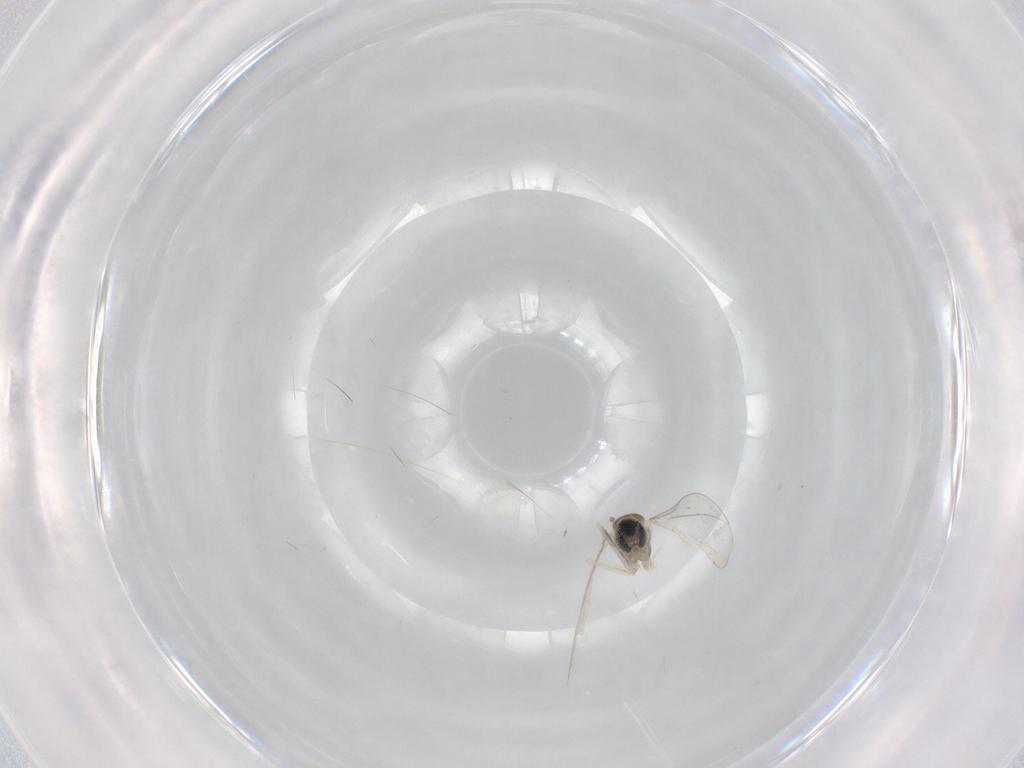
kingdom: Animalia
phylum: Arthropoda
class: Insecta
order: Diptera
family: Cecidomyiidae
